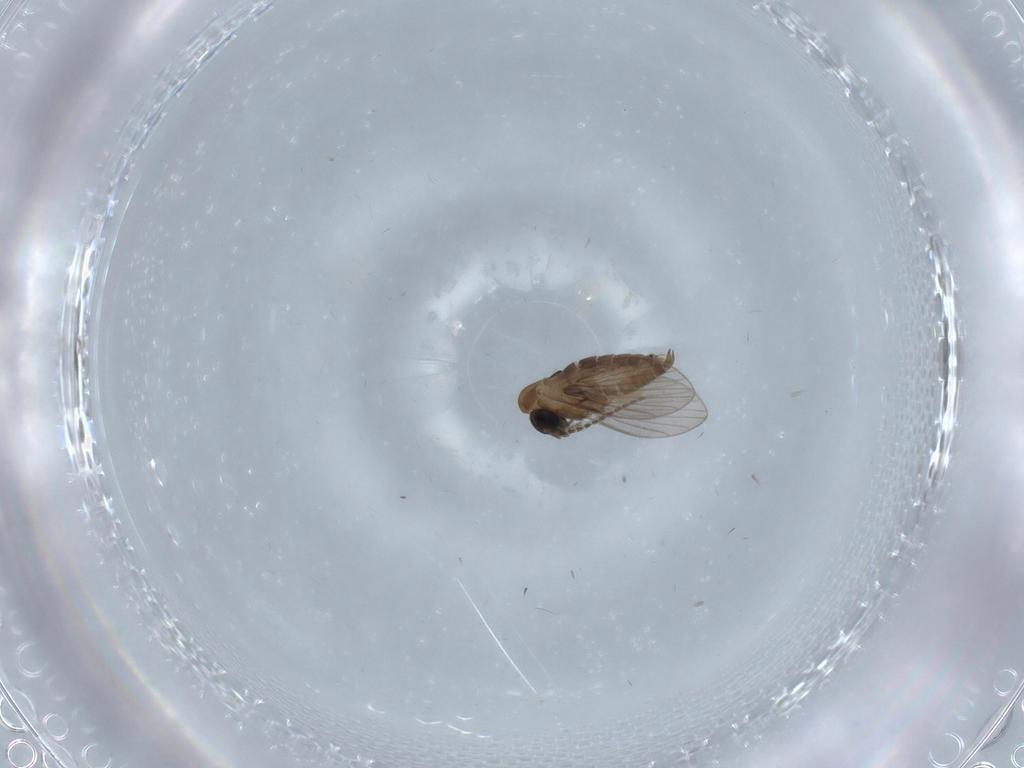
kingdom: Animalia
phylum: Arthropoda
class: Insecta
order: Diptera
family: Psychodidae
